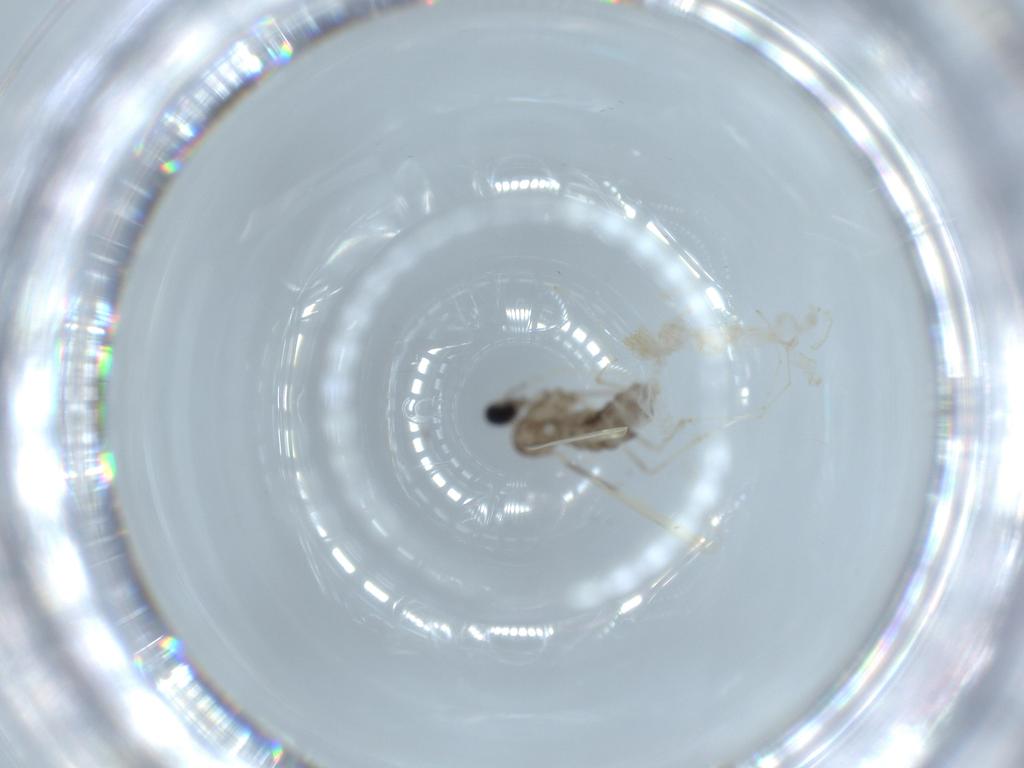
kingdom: Animalia
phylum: Arthropoda
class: Insecta
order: Diptera
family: Cecidomyiidae
